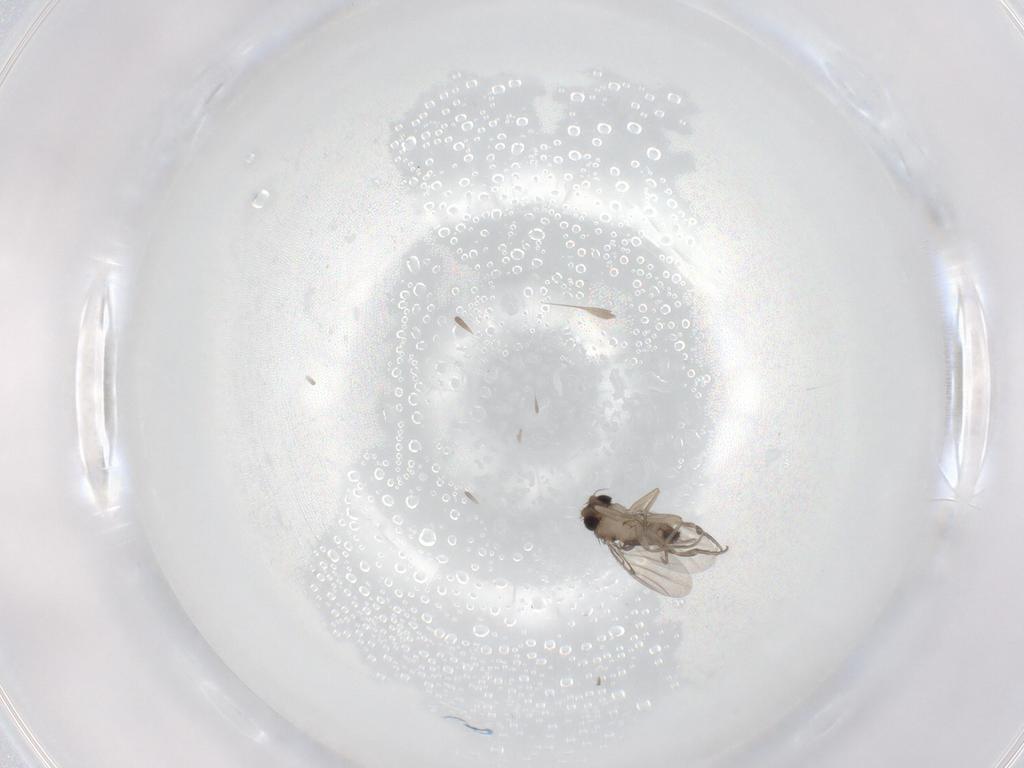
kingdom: Animalia
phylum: Arthropoda
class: Insecta
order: Diptera
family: Phoridae
